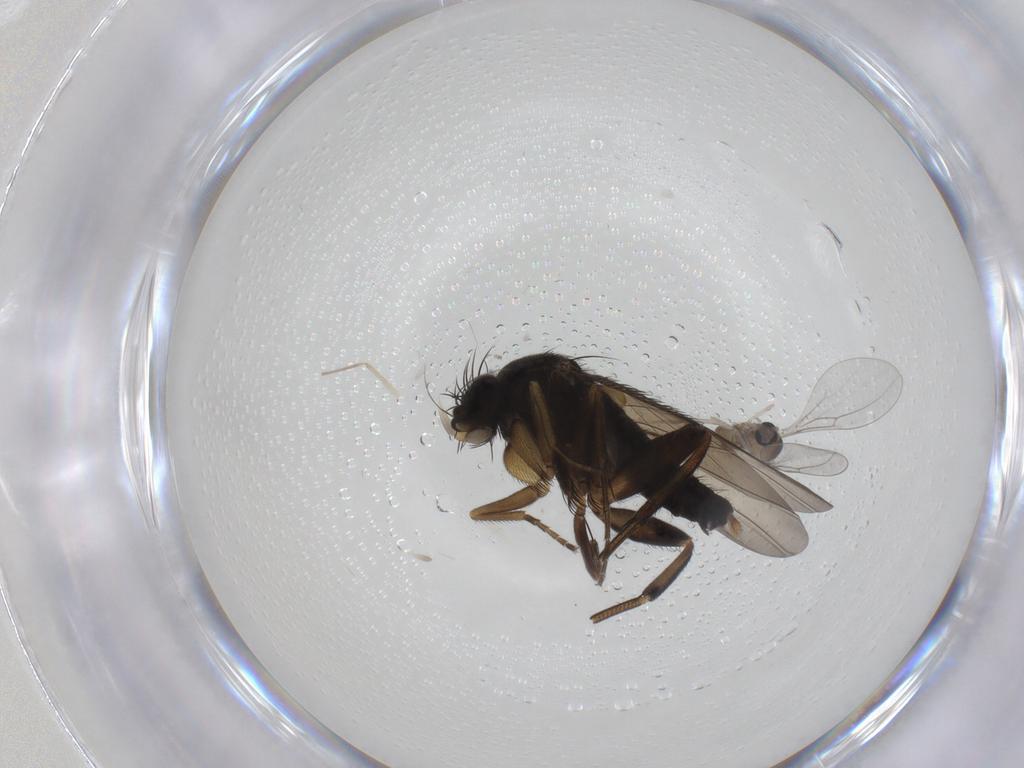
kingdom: Animalia
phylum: Arthropoda
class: Insecta
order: Diptera
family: Phoridae
